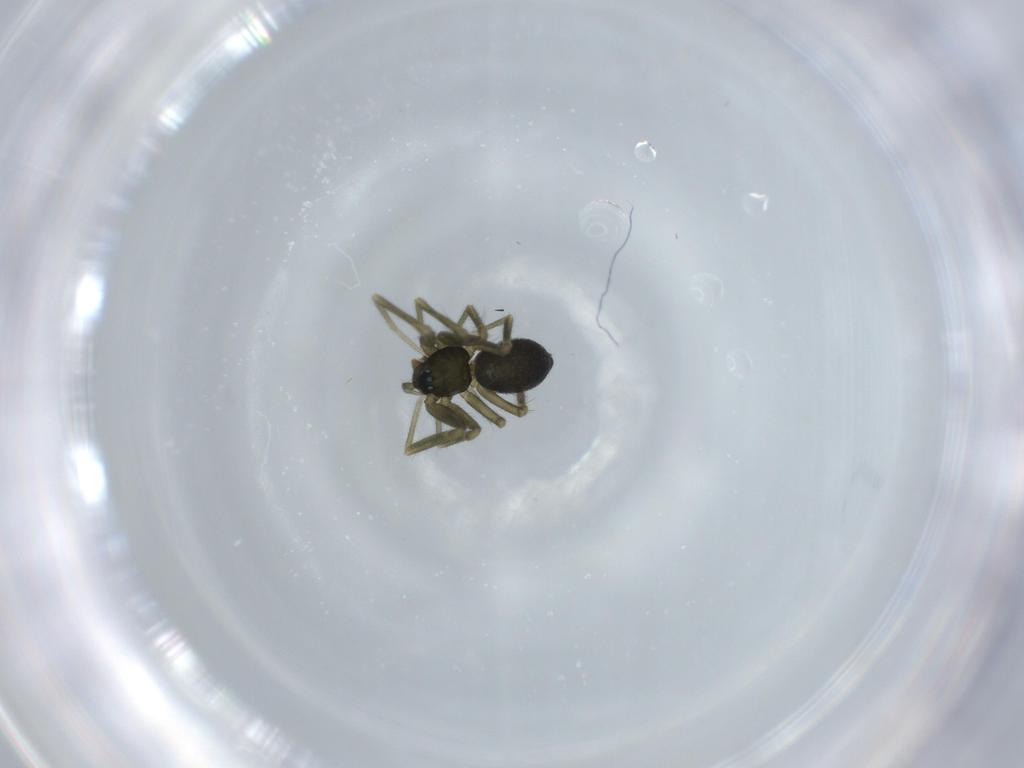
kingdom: Animalia
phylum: Arthropoda
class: Arachnida
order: Araneae
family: Linyphiidae
